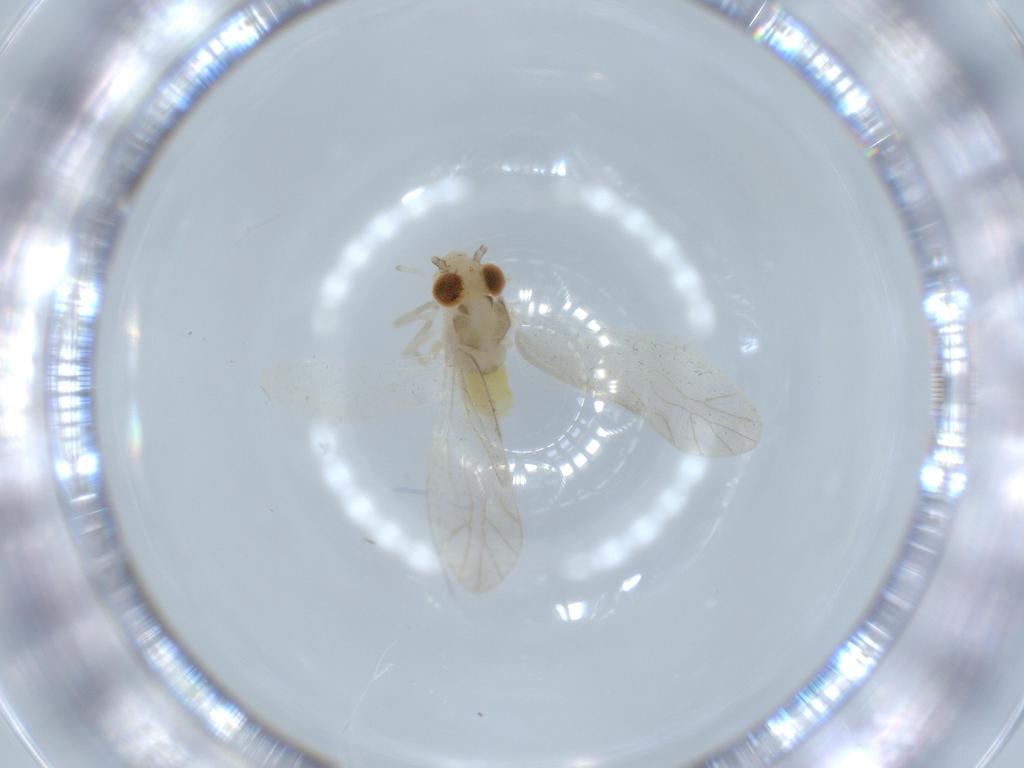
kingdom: Animalia
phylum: Arthropoda
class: Insecta
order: Psocodea
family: Caeciliusidae
